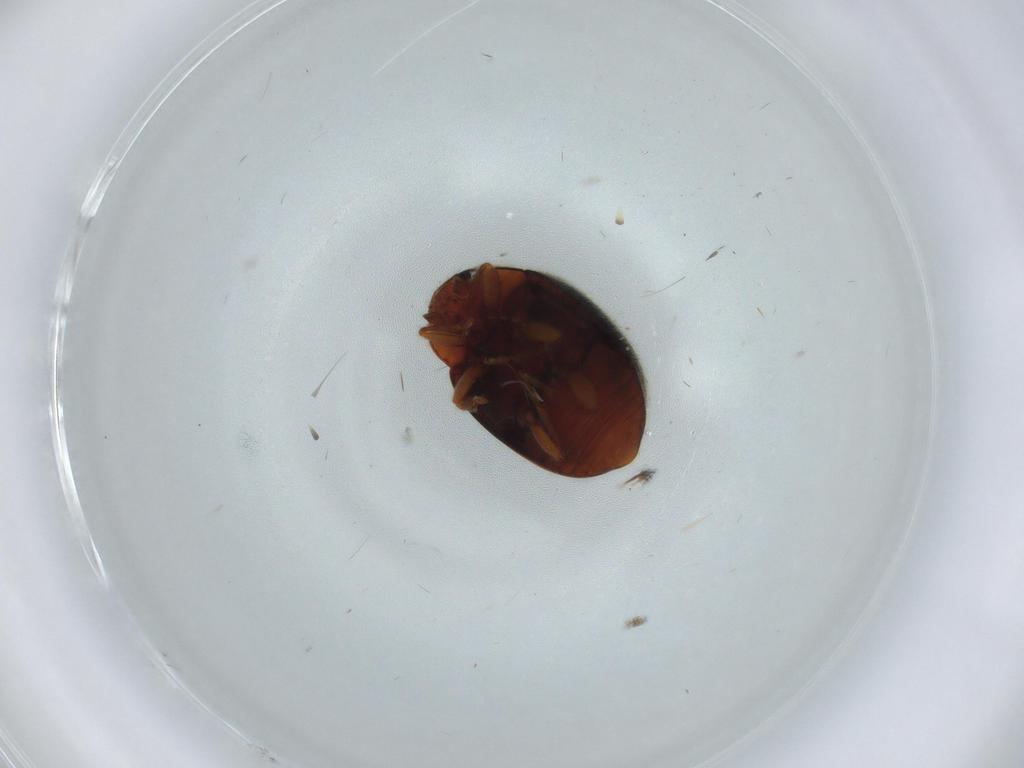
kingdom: Animalia
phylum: Arthropoda
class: Insecta
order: Coleoptera
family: Coccinellidae
